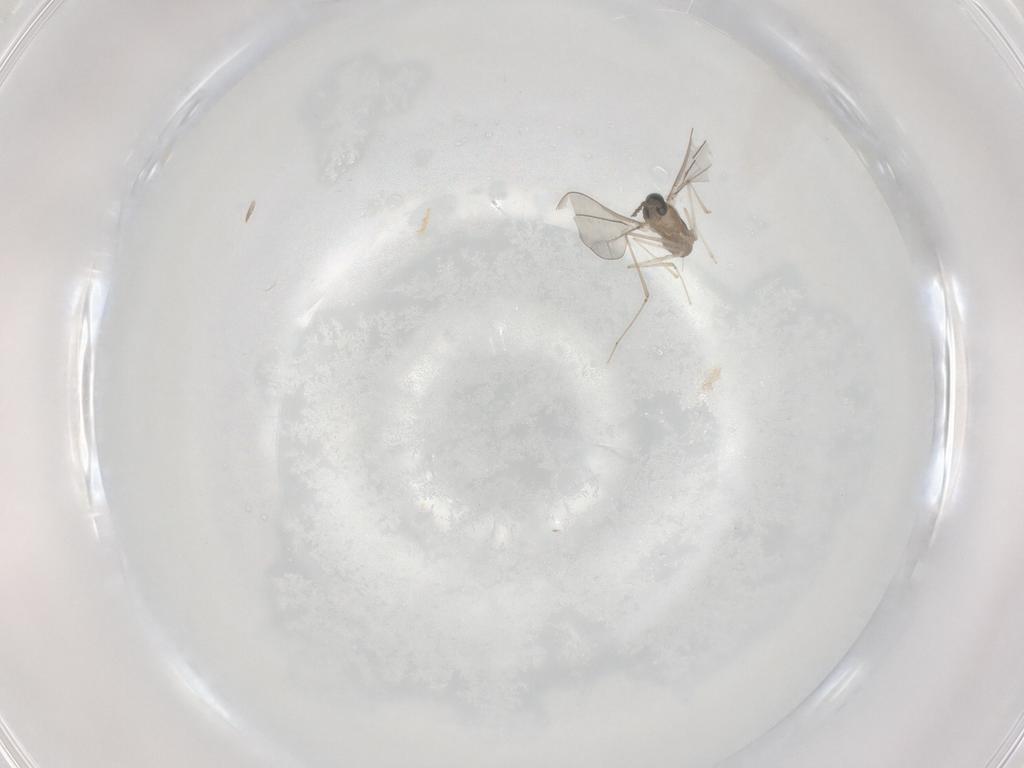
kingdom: Animalia
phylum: Arthropoda
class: Insecta
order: Diptera
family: Cecidomyiidae
